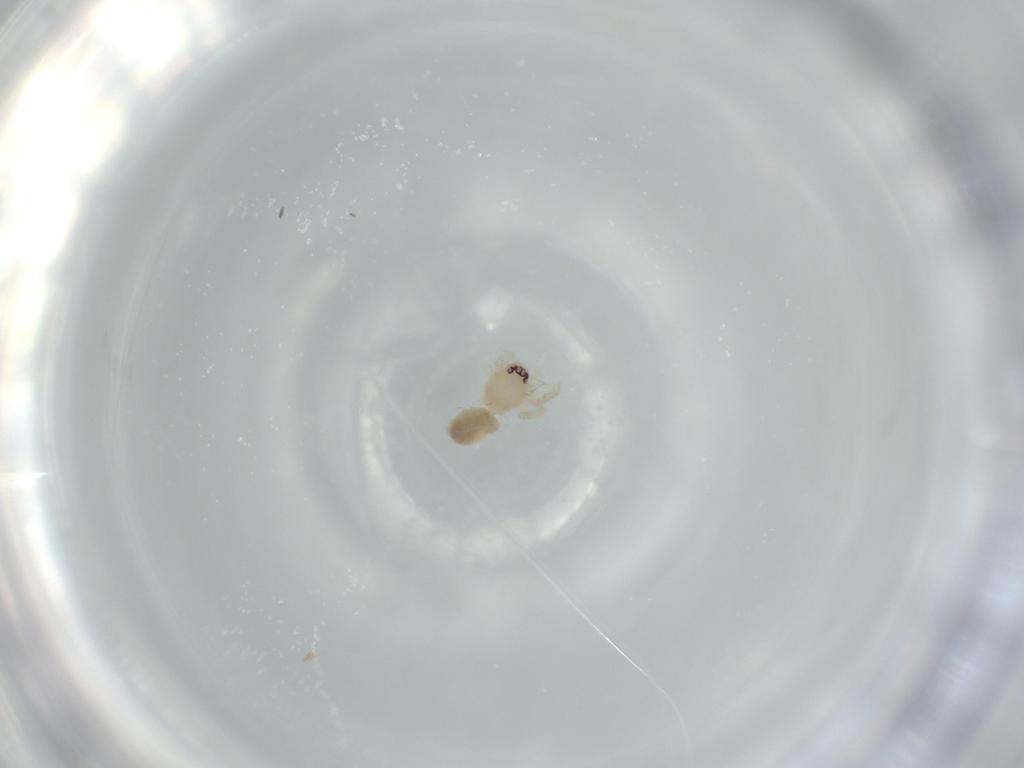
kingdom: Animalia
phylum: Arthropoda
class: Arachnida
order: Araneae
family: Oonopidae
